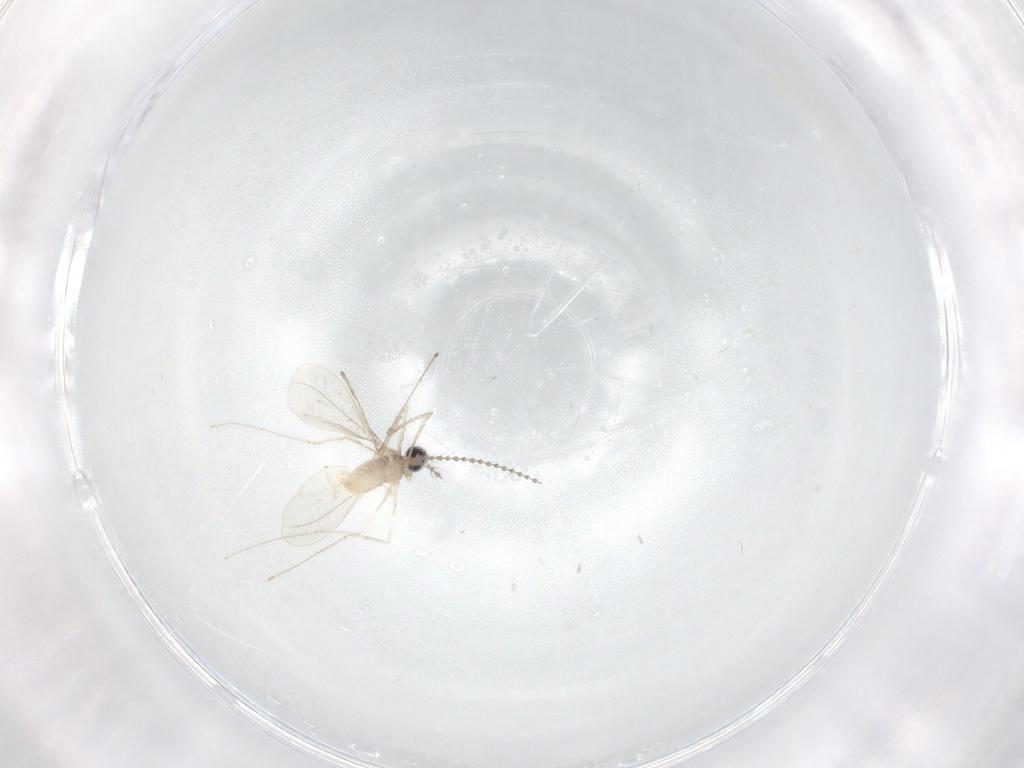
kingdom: Animalia
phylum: Arthropoda
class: Insecta
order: Diptera
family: Cecidomyiidae
